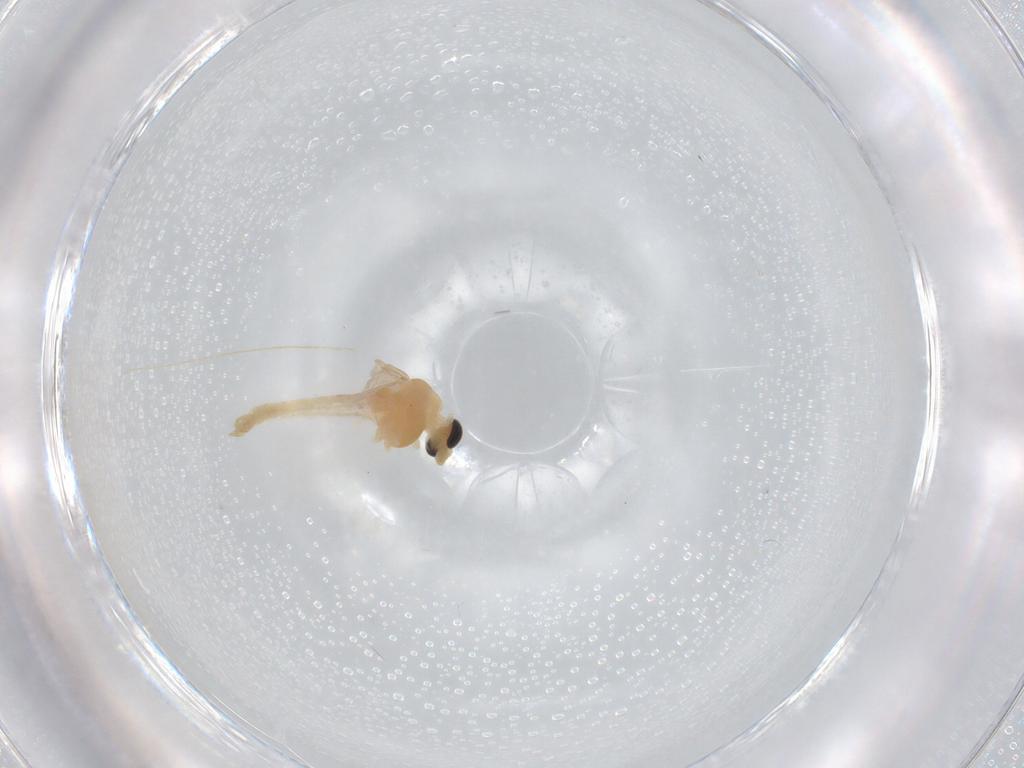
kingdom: Animalia
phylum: Arthropoda
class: Insecta
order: Diptera
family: Chironomidae
